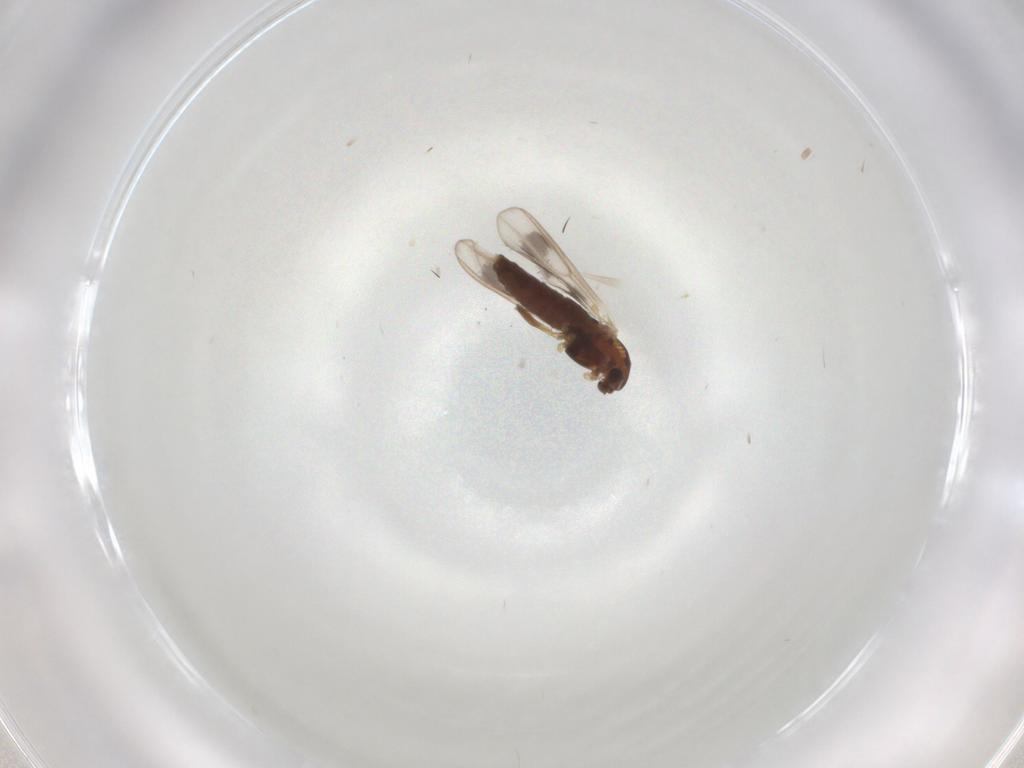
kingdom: Animalia
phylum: Arthropoda
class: Insecta
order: Diptera
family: Chironomidae
